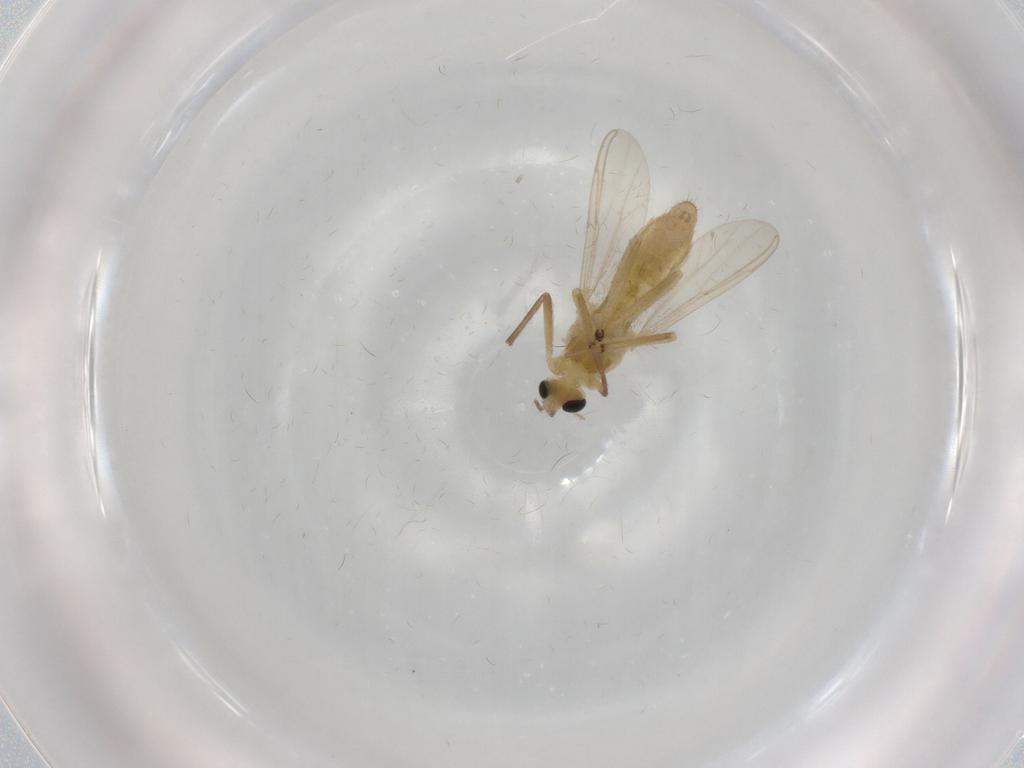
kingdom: Animalia
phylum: Arthropoda
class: Insecta
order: Diptera
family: Chironomidae
